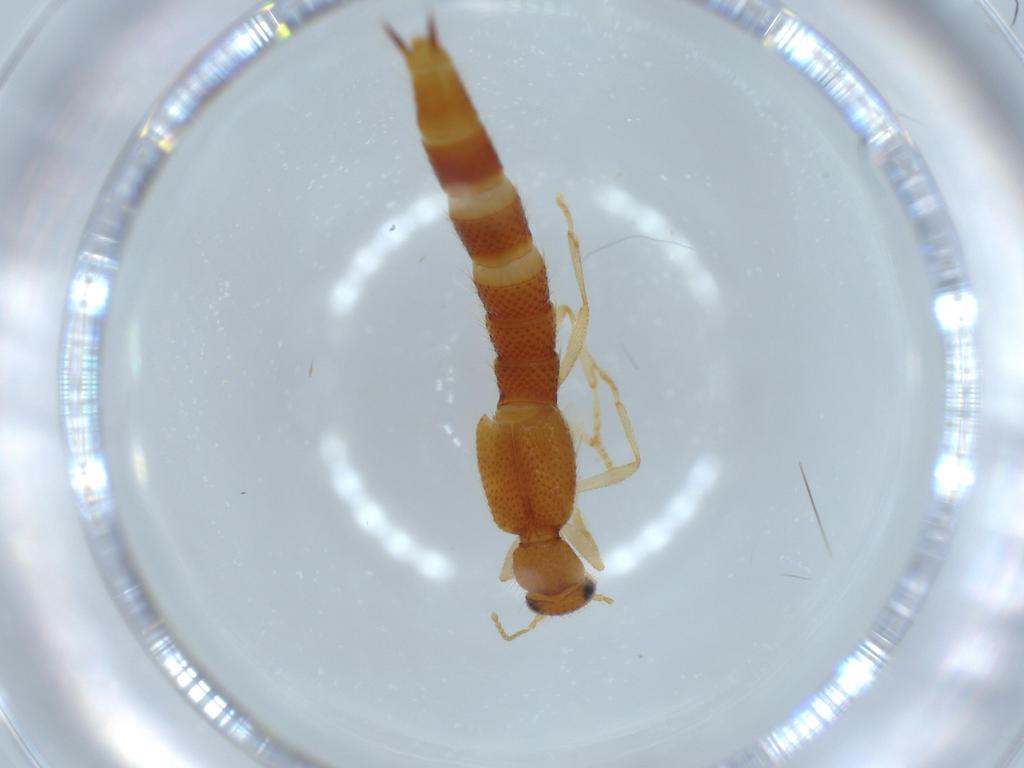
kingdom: Animalia
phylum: Arthropoda
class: Insecta
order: Coleoptera
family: Staphylinidae
